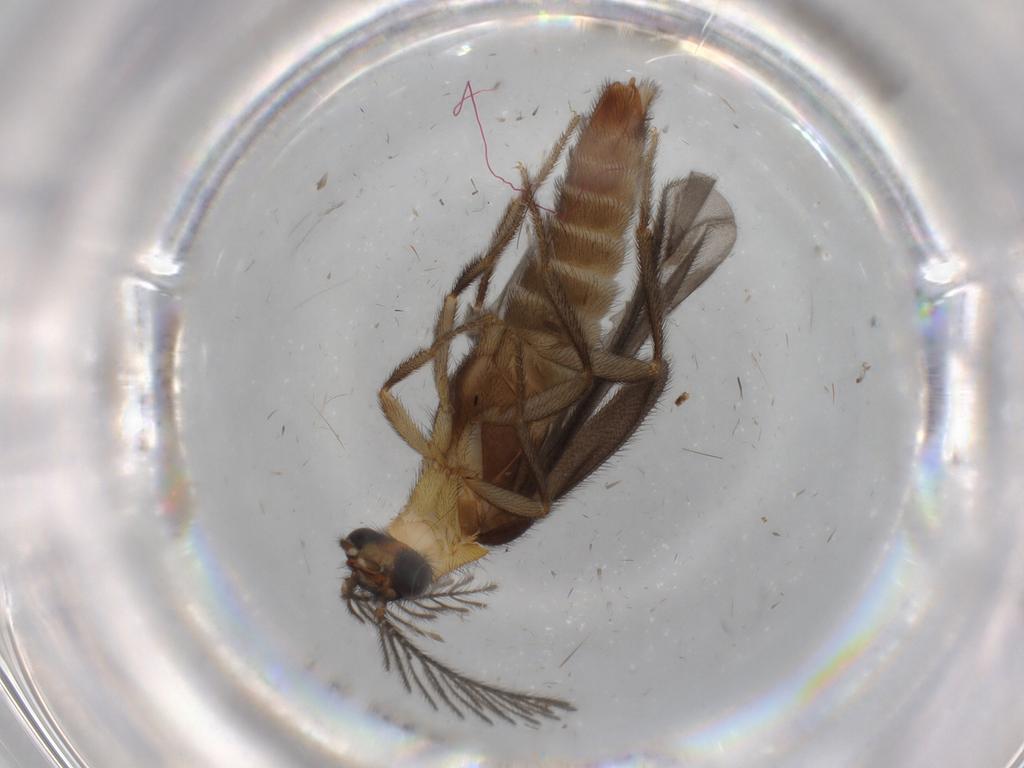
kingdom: Animalia
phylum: Arthropoda
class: Insecta
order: Coleoptera
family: Phengodidae
